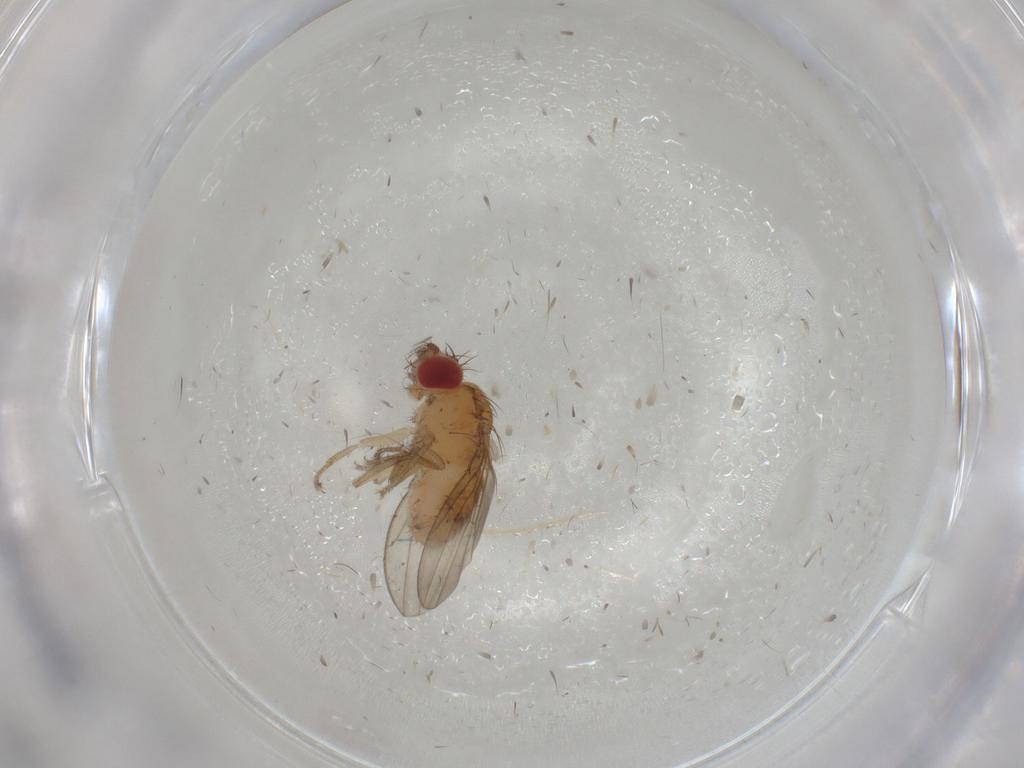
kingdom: Animalia
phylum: Arthropoda
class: Insecta
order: Diptera
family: Drosophilidae
